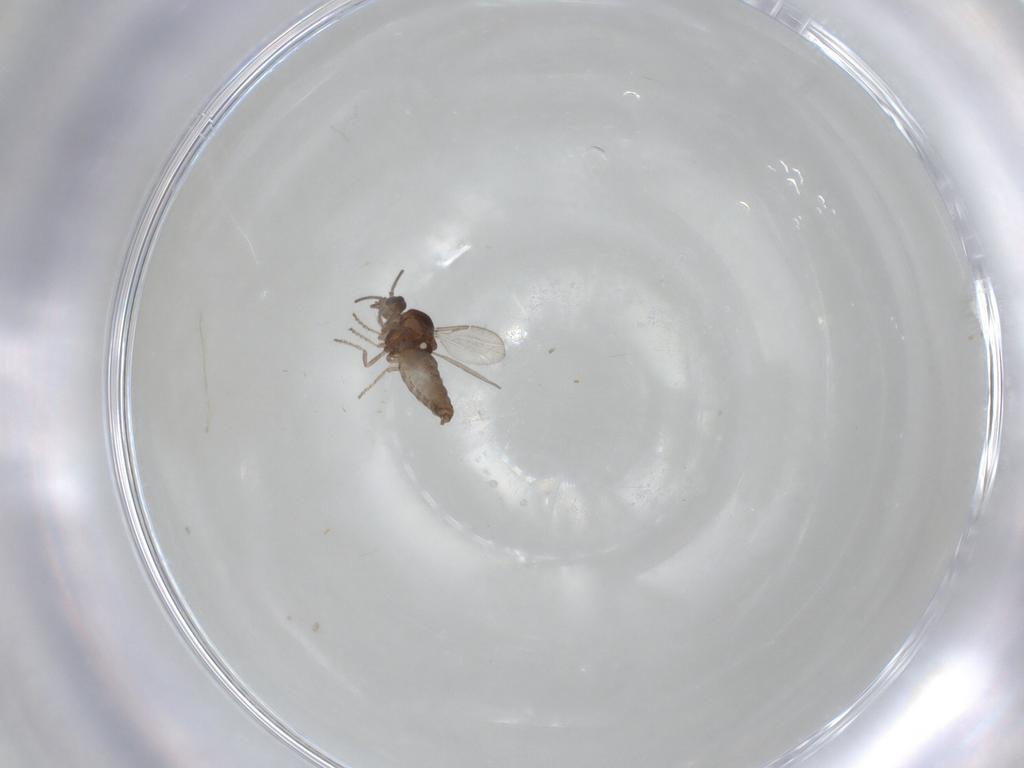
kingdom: Animalia
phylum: Arthropoda
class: Insecta
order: Diptera
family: Ceratopogonidae
